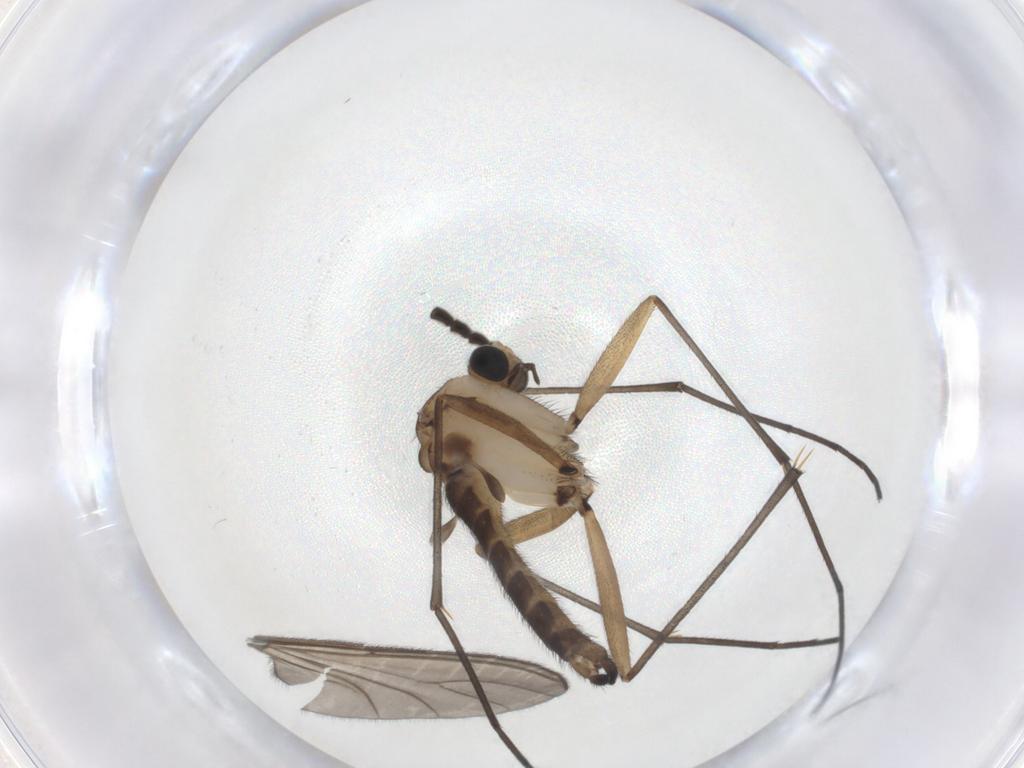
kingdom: Animalia
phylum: Arthropoda
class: Insecta
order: Diptera
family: Sciaridae
